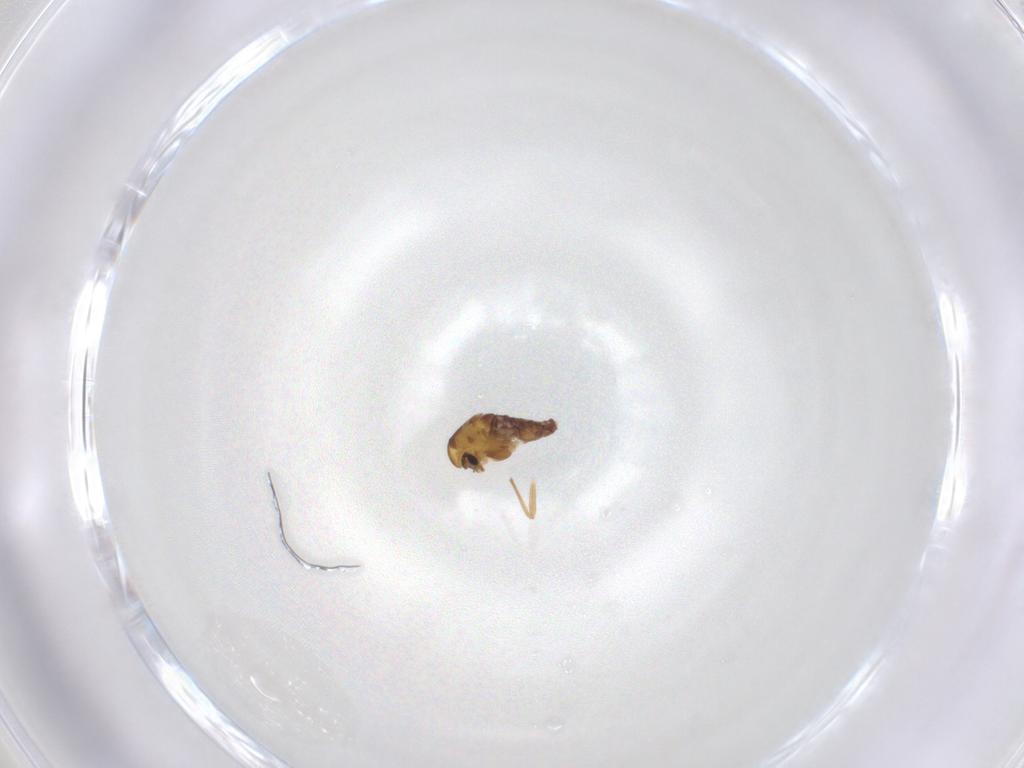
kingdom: Animalia
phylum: Arthropoda
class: Insecta
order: Diptera
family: Chironomidae
